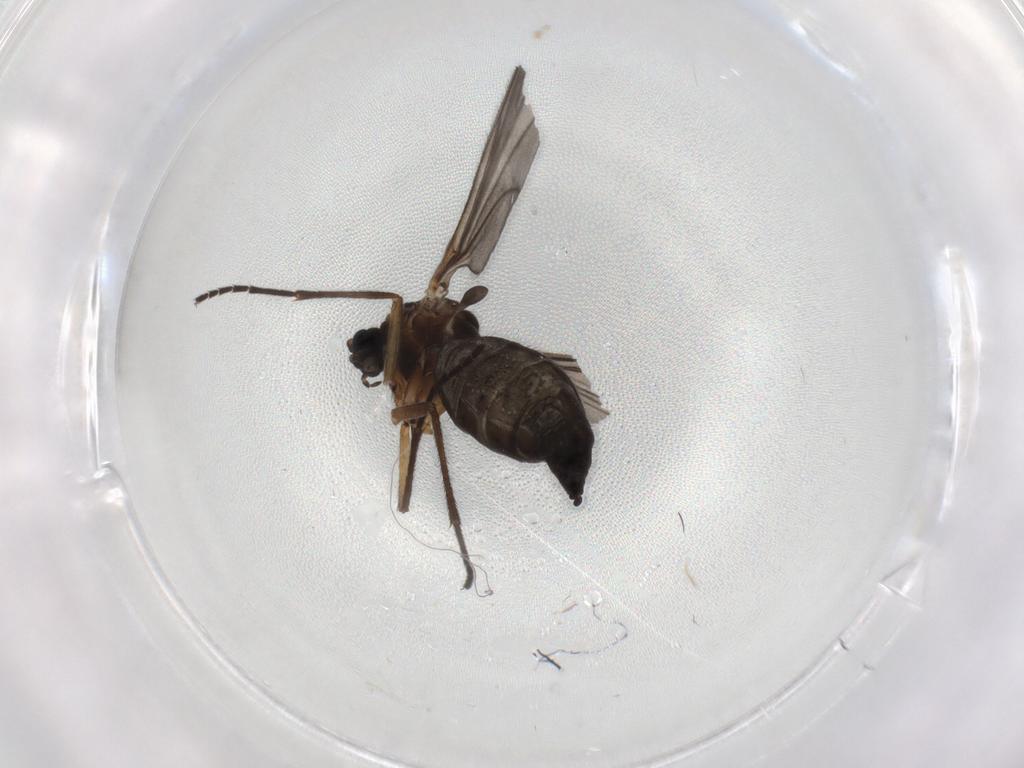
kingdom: Animalia
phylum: Arthropoda
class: Insecta
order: Diptera
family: Sciaridae
